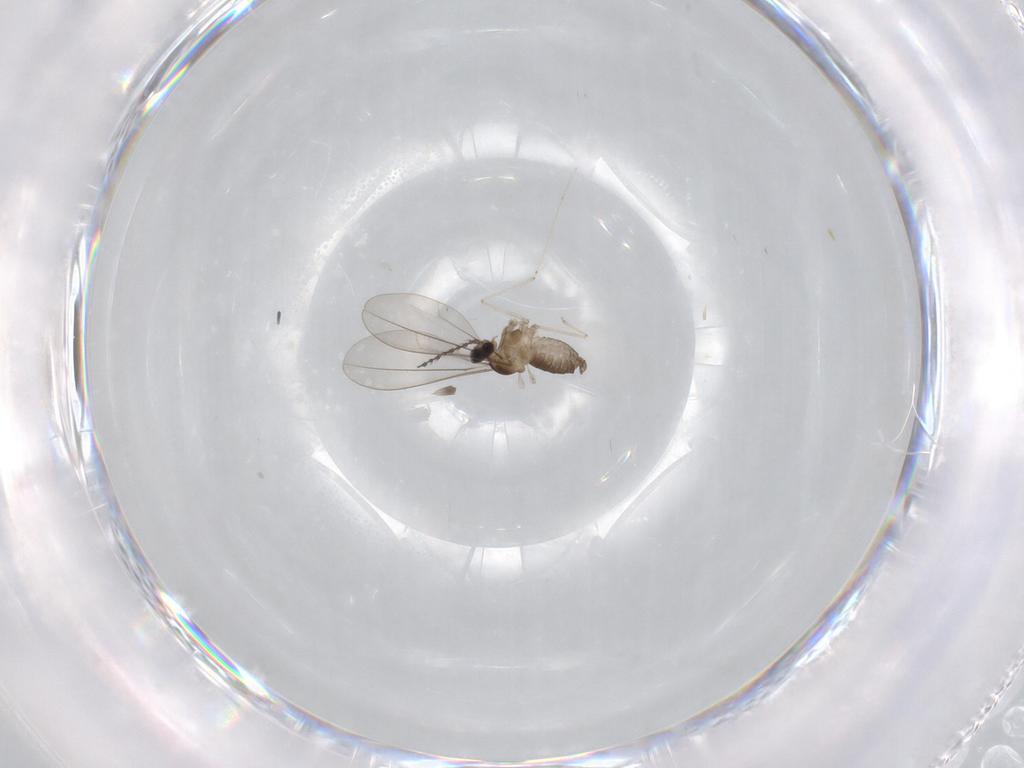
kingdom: Animalia
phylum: Arthropoda
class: Insecta
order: Diptera
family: Cecidomyiidae
